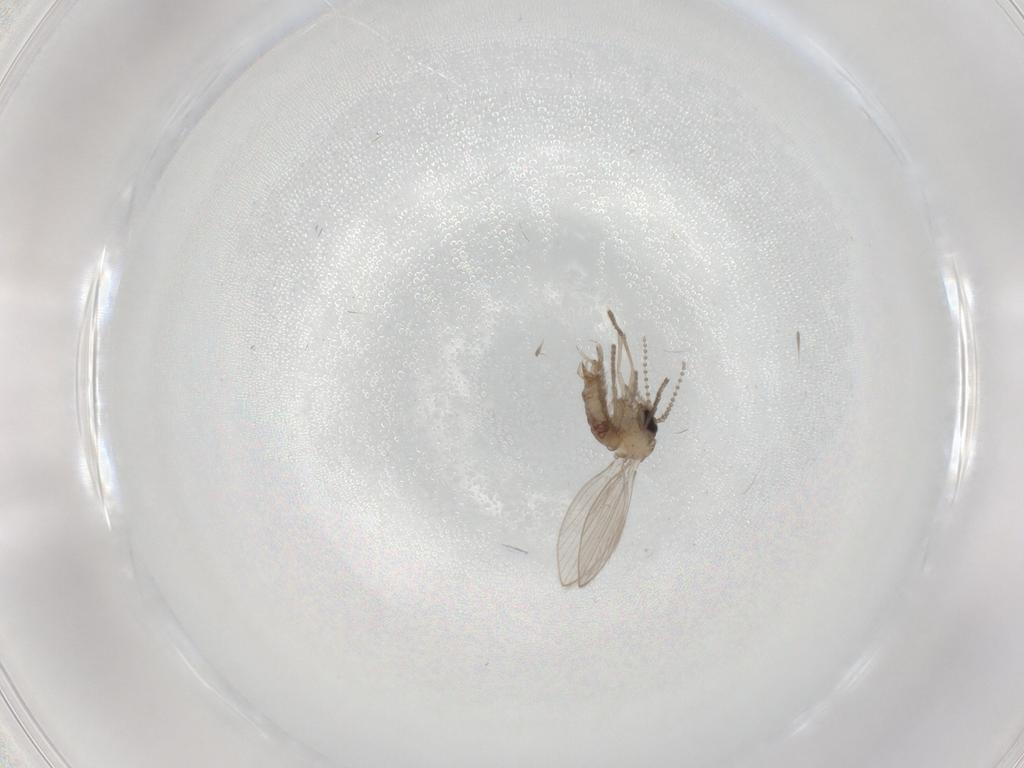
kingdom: Animalia
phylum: Arthropoda
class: Insecta
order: Diptera
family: Psychodidae
